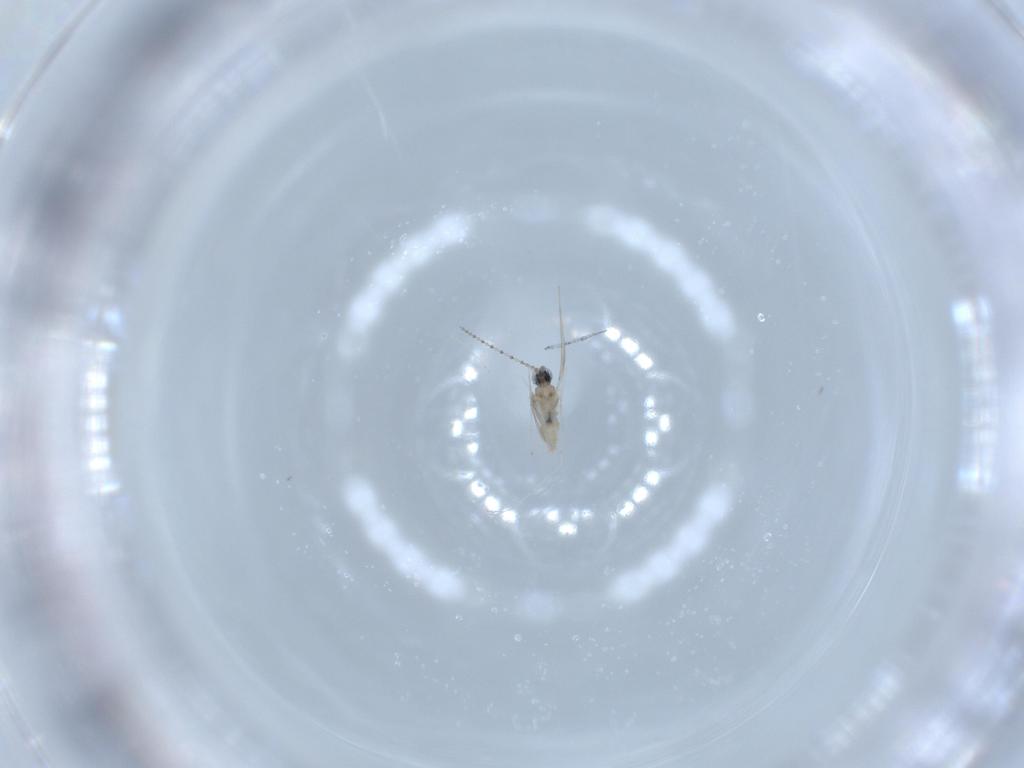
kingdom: Animalia
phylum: Arthropoda
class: Insecta
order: Diptera
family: Cecidomyiidae
